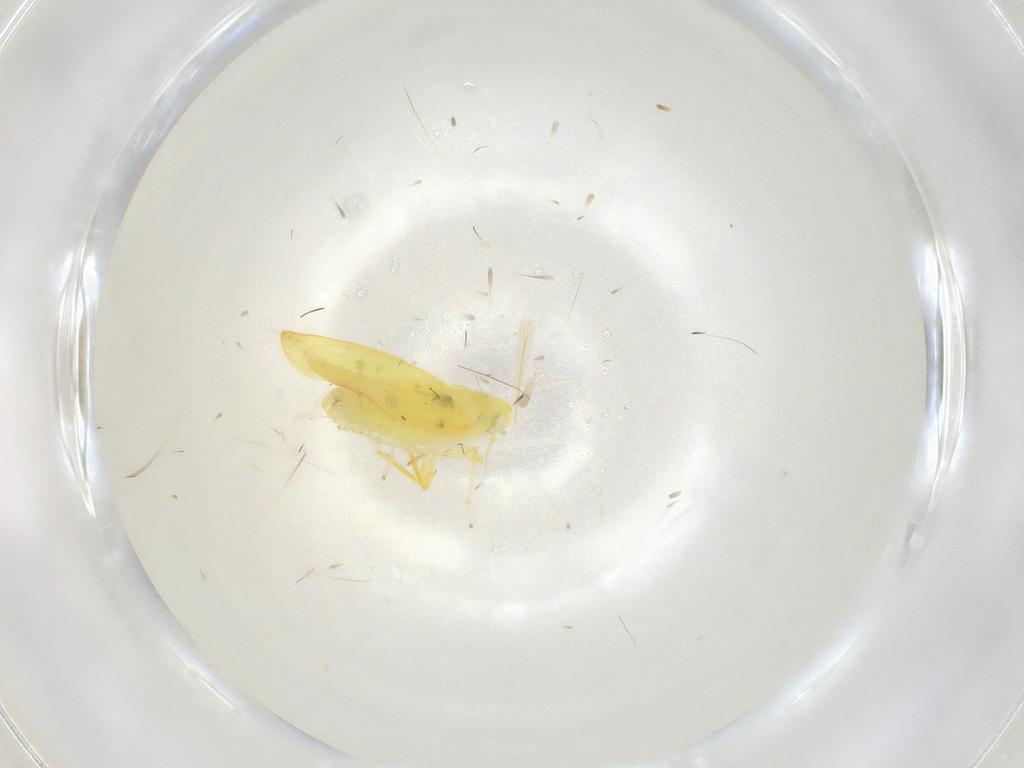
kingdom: Animalia
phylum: Arthropoda
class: Insecta
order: Hemiptera
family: Cicadellidae
